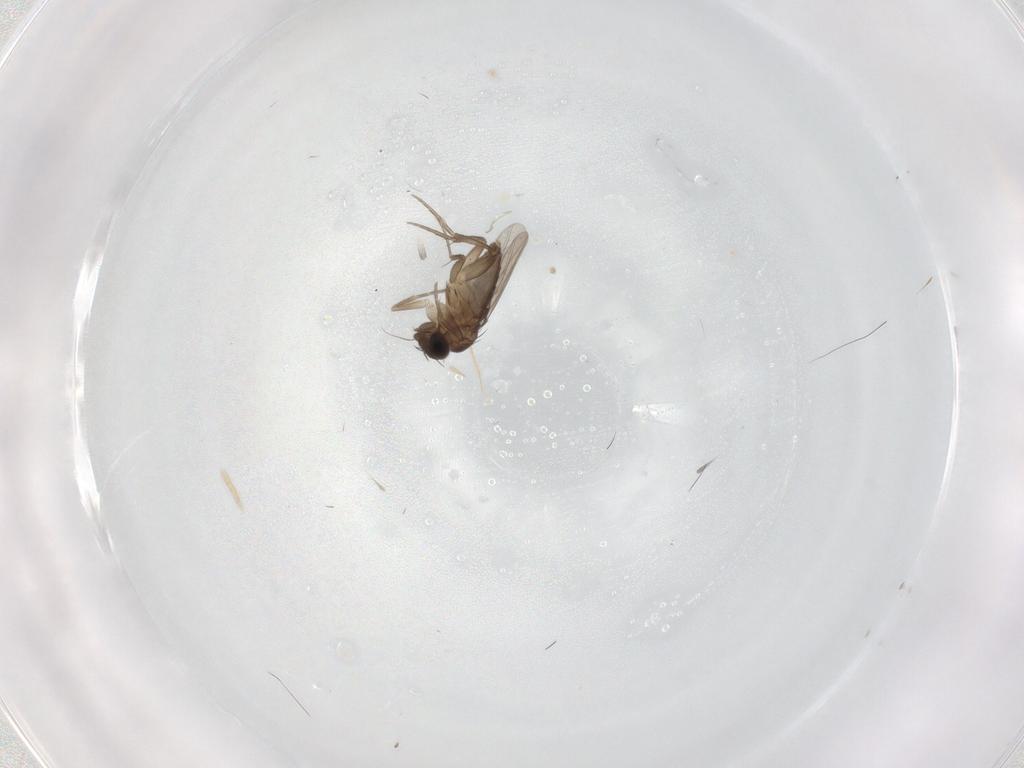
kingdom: Animalia
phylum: Arthropoda
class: Insecta
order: Diptera
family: Phoridae
